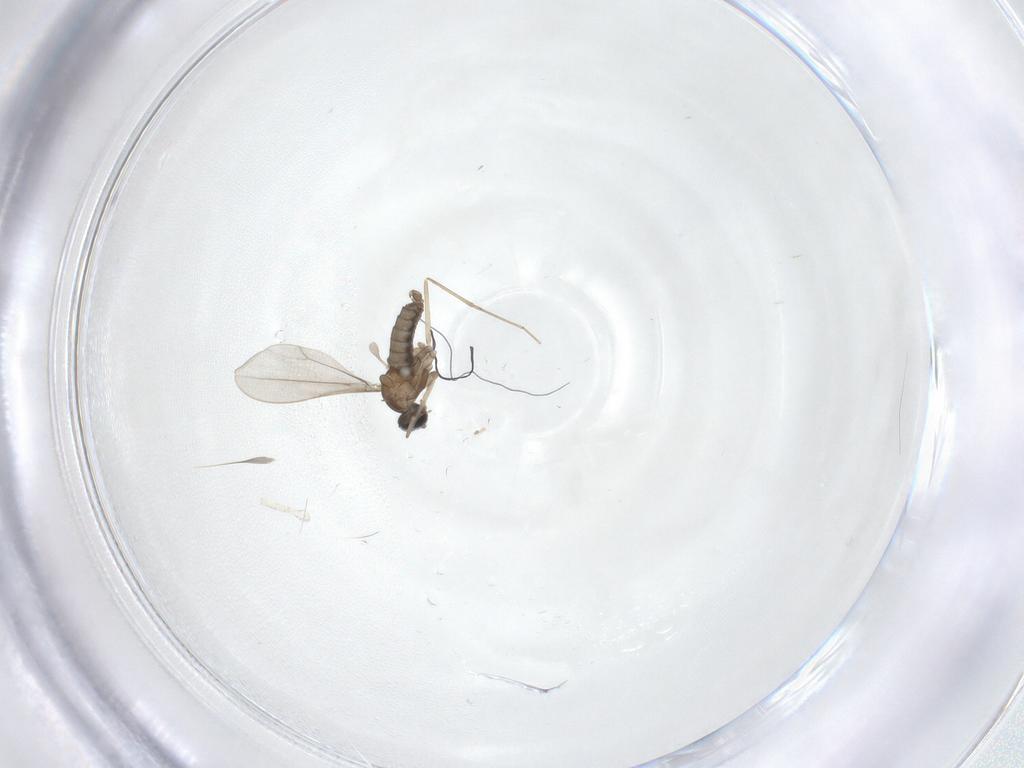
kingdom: Animalia
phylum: Arthropoda
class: Insecta
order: Diptera
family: Cecidomyiidae
